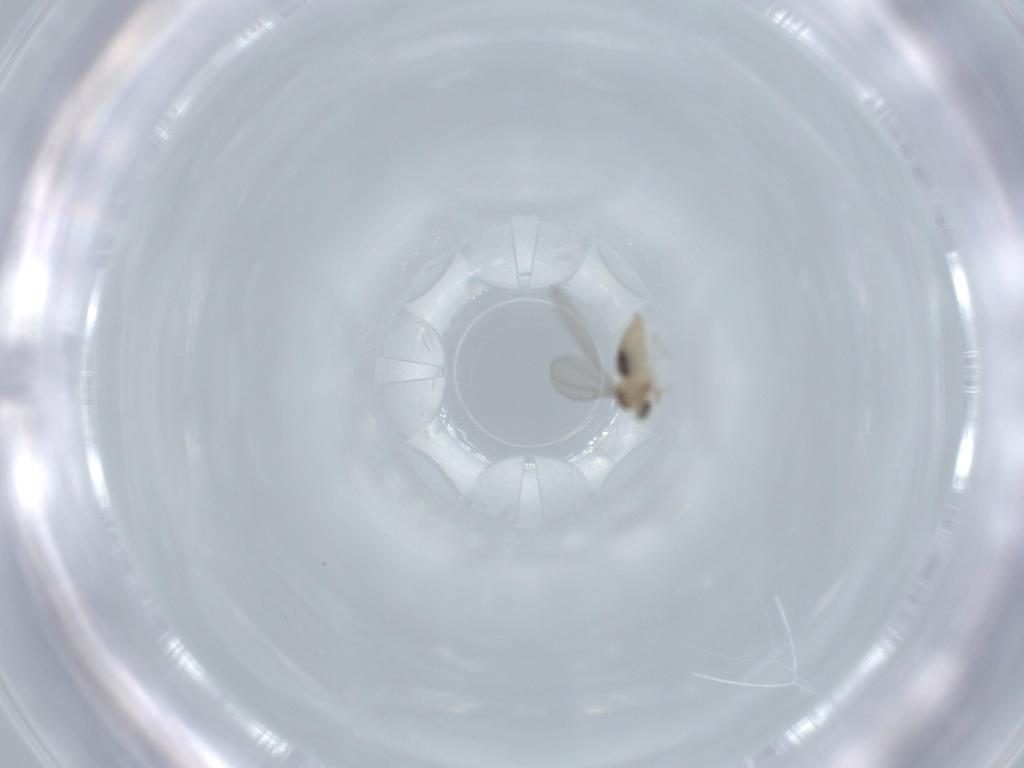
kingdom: Animalia
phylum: Arthropoda
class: Insecta
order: Diptera
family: Cecidomyiidae
